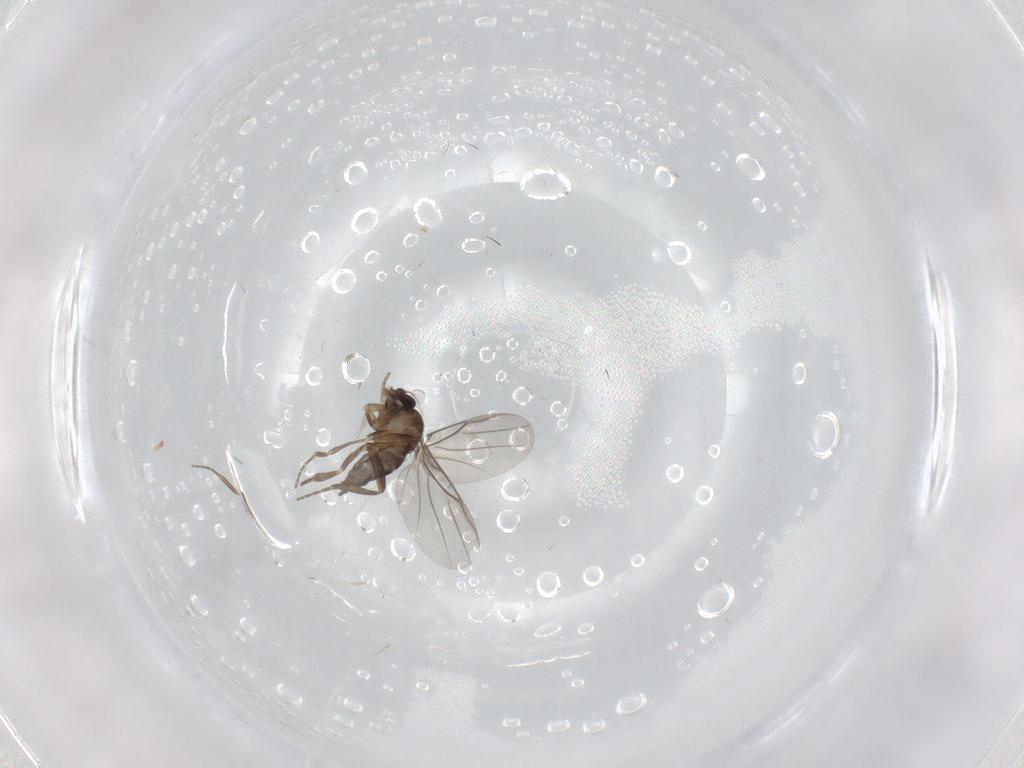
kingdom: Animalia
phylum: Arthropoda
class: Insecta
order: Diptera
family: Phoridae
